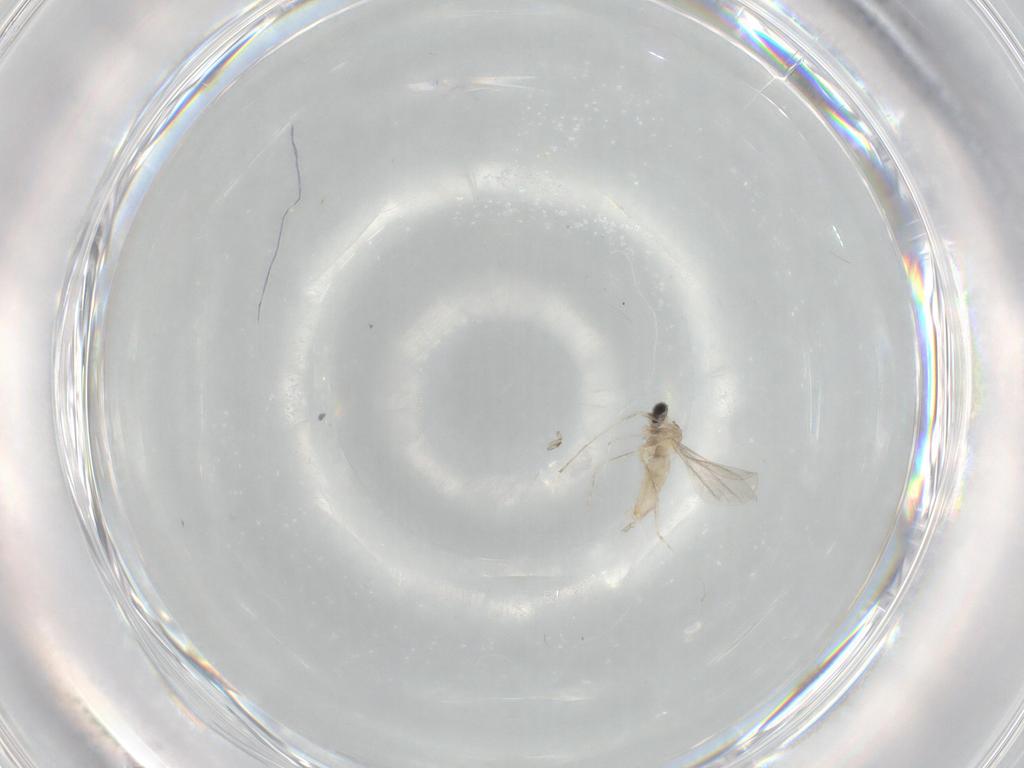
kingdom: Animalia
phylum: Arthropoda
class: Insecta
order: Diptera
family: Cecidomyiidae
